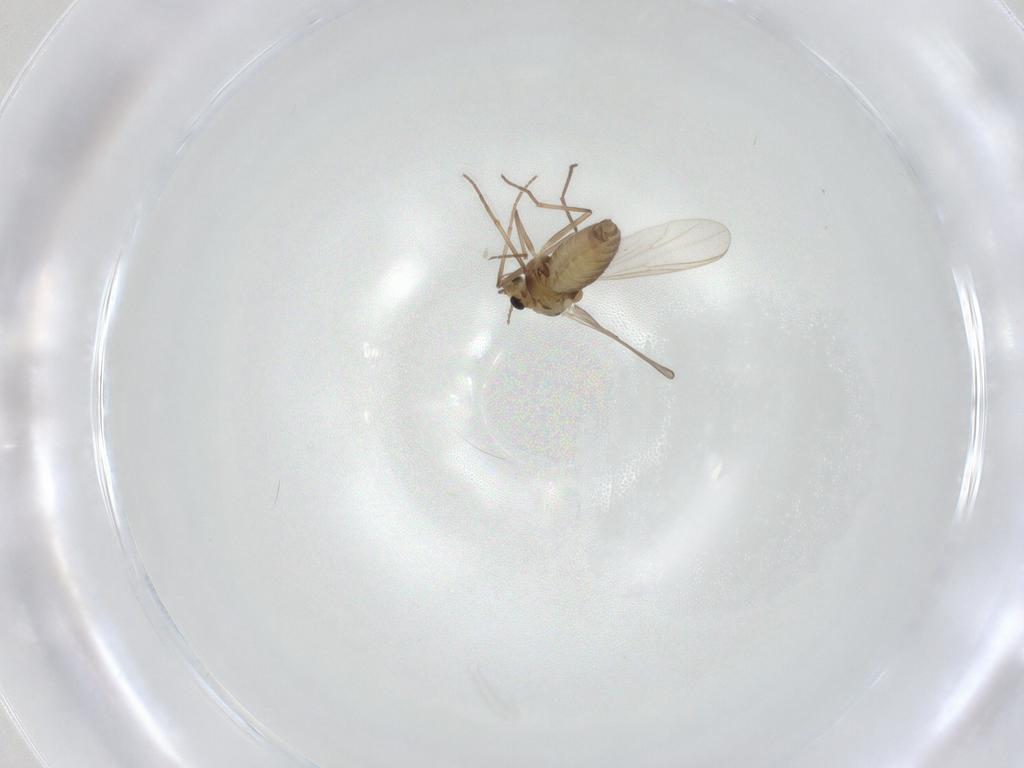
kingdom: Animalia
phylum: Arthropoda
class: Insecta
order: Diptera
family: Chironomidae
